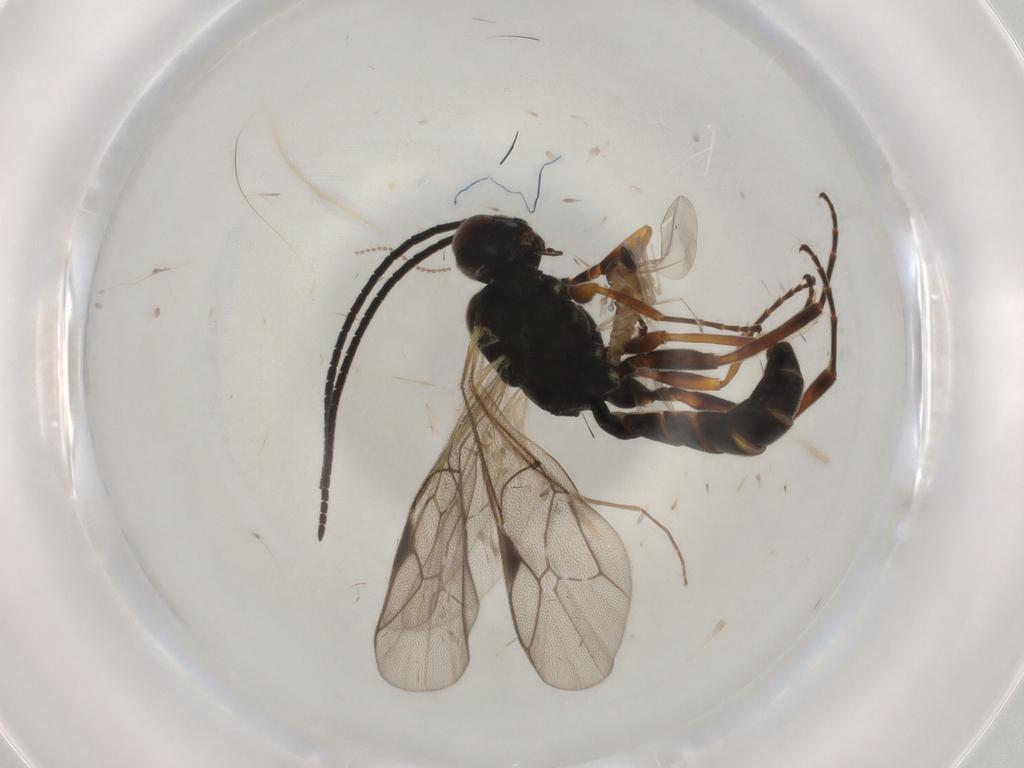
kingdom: Animalia
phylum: Arthropoda
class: Insecta
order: Hymenoptera
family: Ichneumonidae
